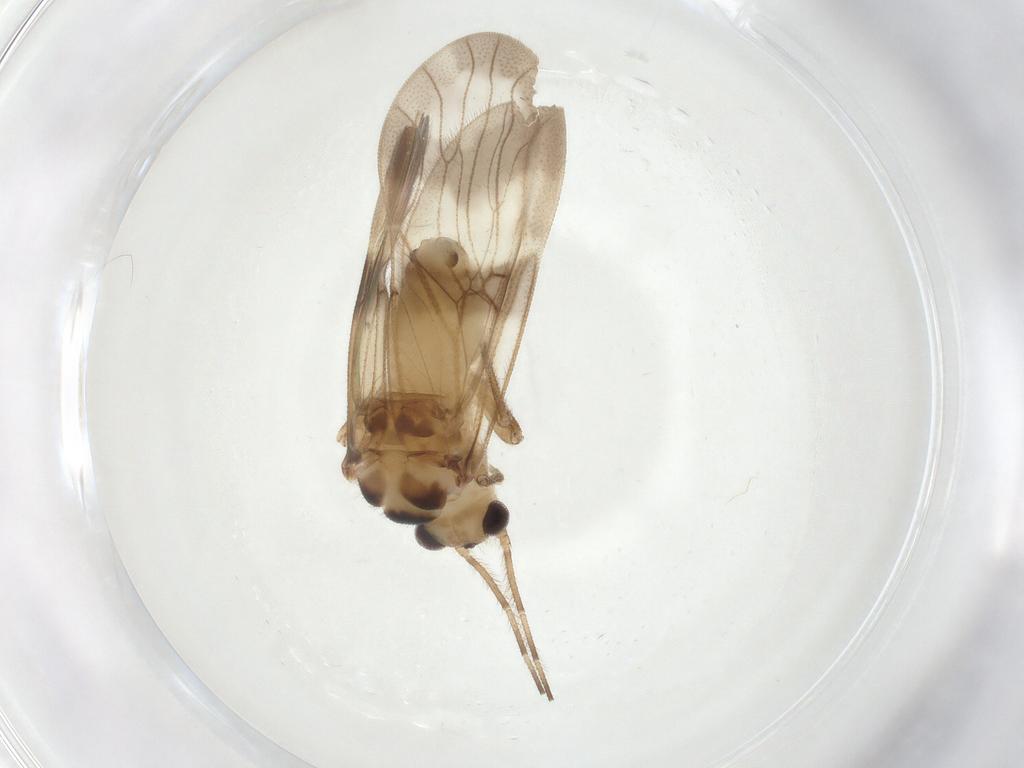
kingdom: Animalia
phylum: Arthropoda
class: Insecta
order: Psocodea
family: Amphipsocidae
